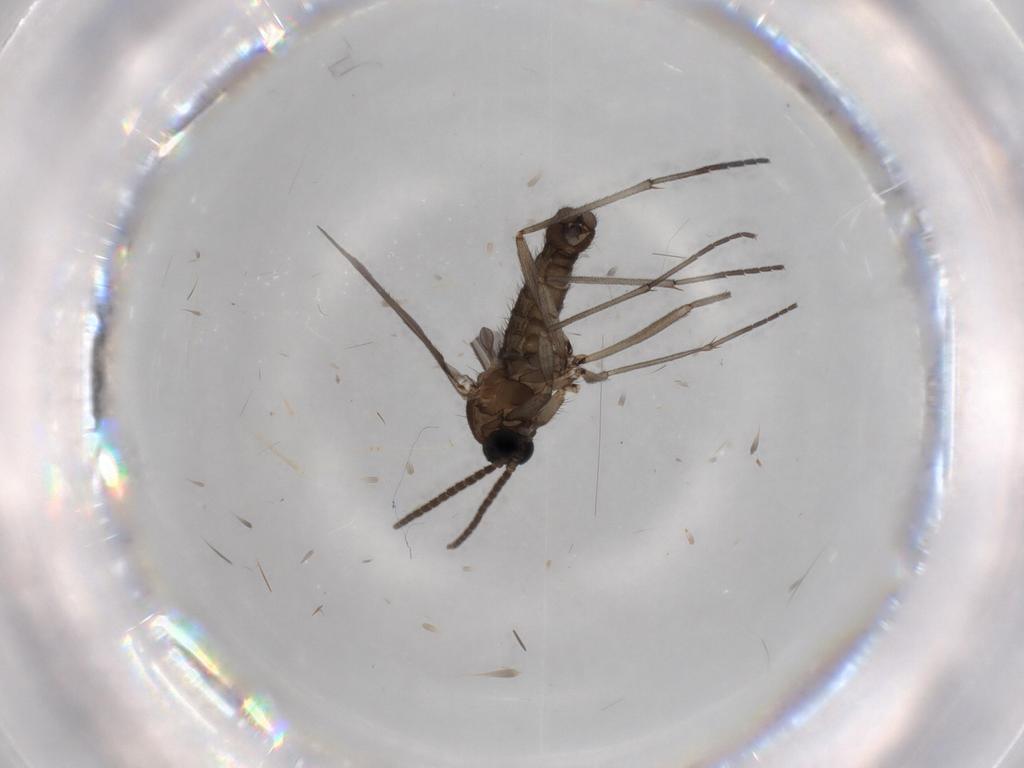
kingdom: Animalia
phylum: Arthropoda
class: Insecta
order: Diptera
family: Sciaridae
